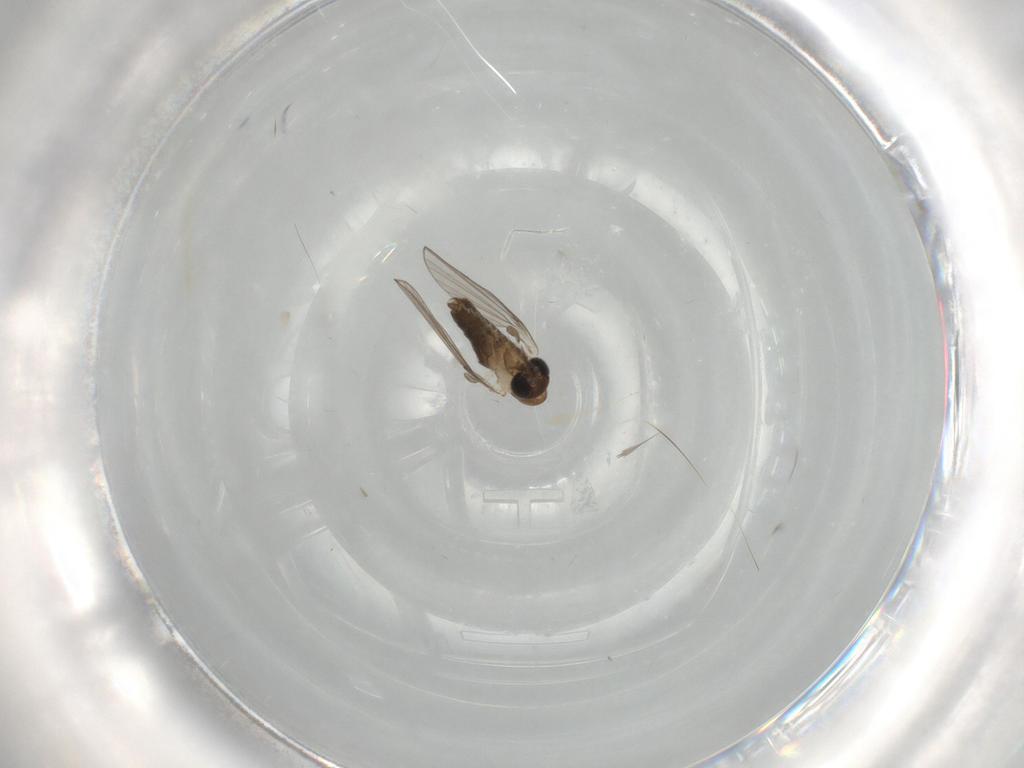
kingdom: Animalia
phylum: Arthropoda
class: Insecta
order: Diptera
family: Psychodidae
